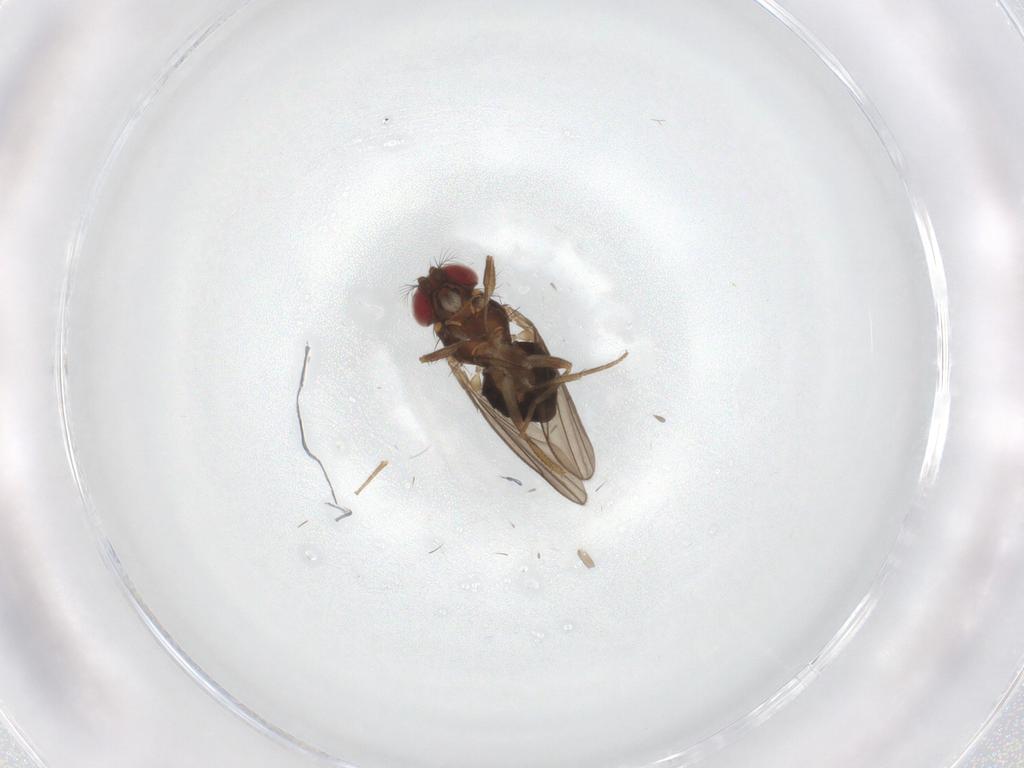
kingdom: Animalia
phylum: Arthropoda
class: Insecta
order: Diptera
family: Drosophilidae
